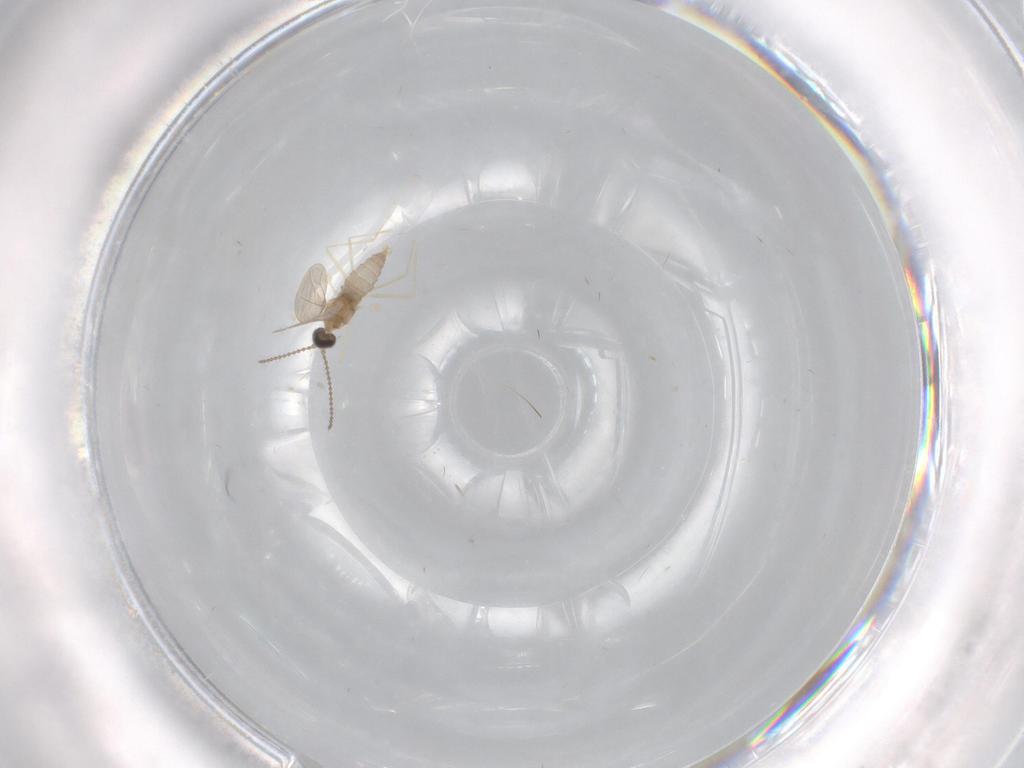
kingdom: Animalia
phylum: Arthropoda
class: Insecta
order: Diptera
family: Cecidomyiidae
